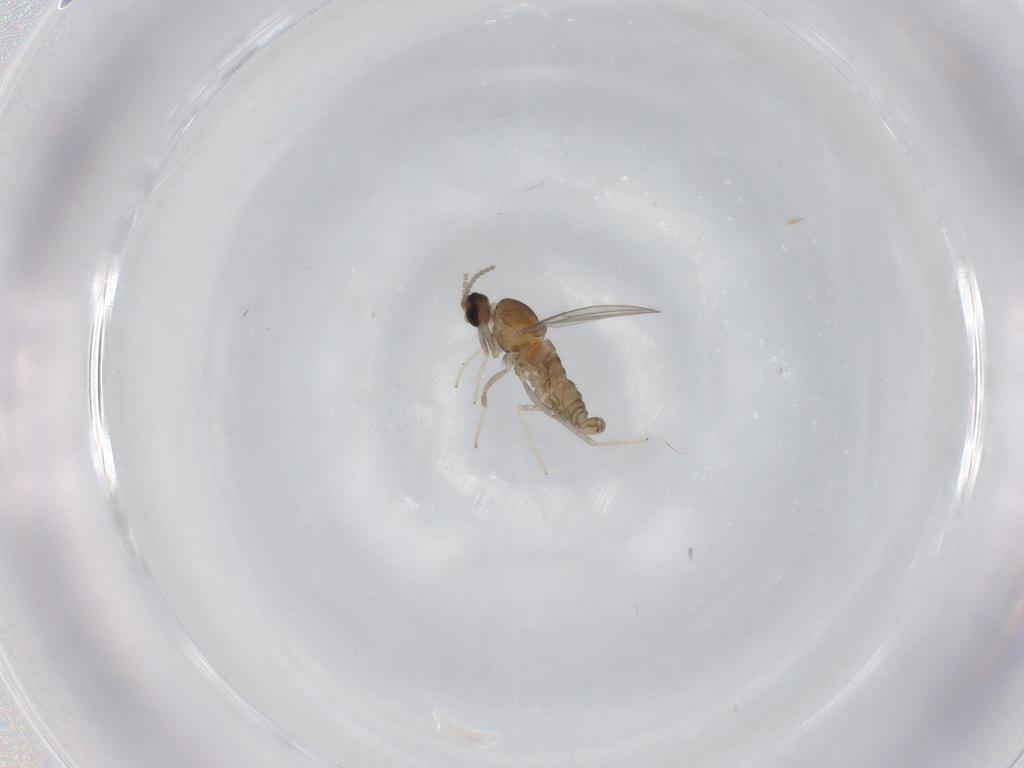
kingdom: Animalia
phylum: Arthropoda
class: Insecta
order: Diptera
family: Cecidomyiidae
